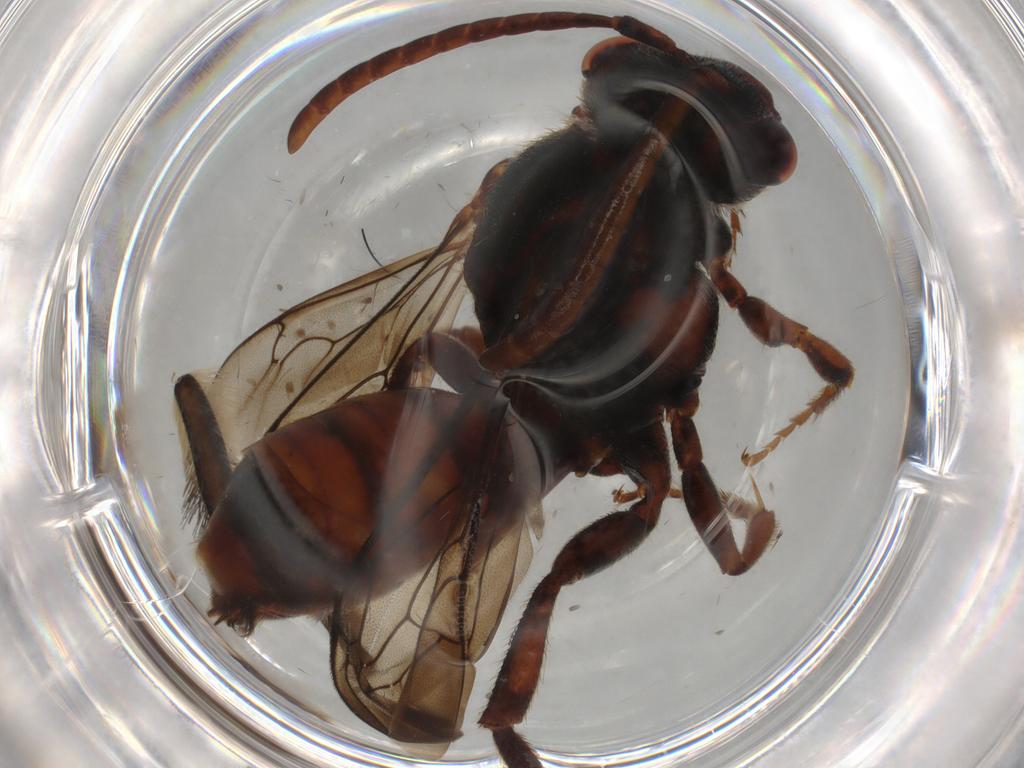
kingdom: Animalia
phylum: Arthropoda
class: Insecta
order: Hymenoptera
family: Apidae
